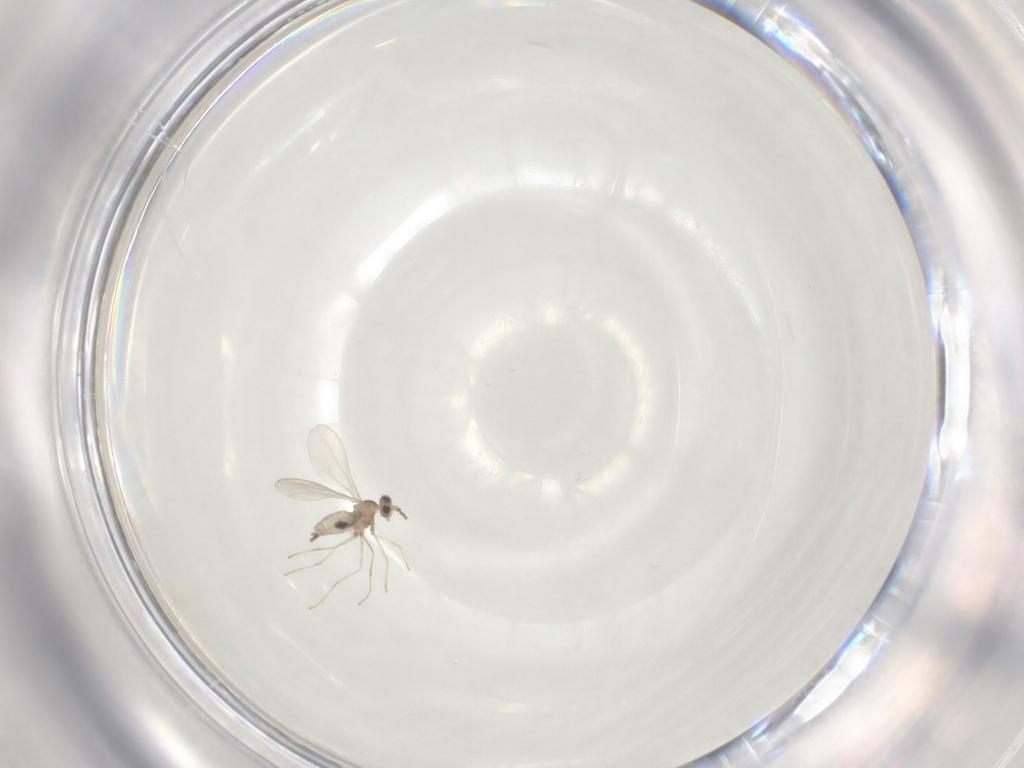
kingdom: Animalia
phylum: Arthropoda
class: Insecta
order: Diptera
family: Cecidomyiidae
